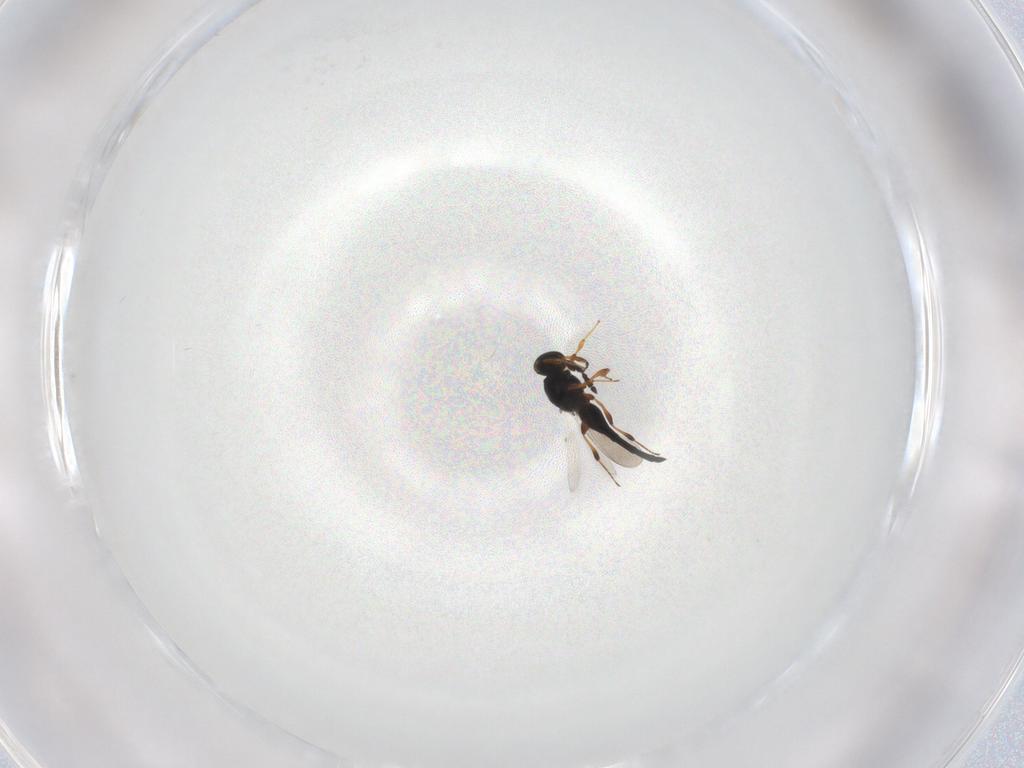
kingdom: Animalia
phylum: Arthropoda
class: Insecta
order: Hymenoptera
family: Platygastridae
